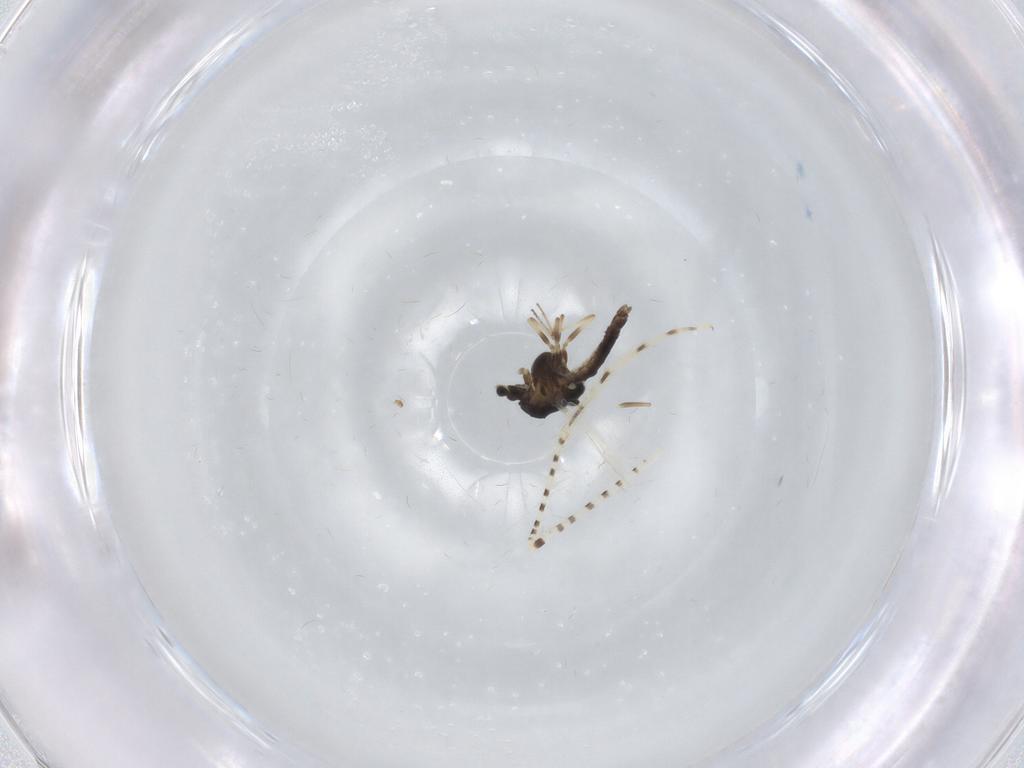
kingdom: Animalia
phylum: Arthropoda
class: Insecta
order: Diptera
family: Chironomidae
